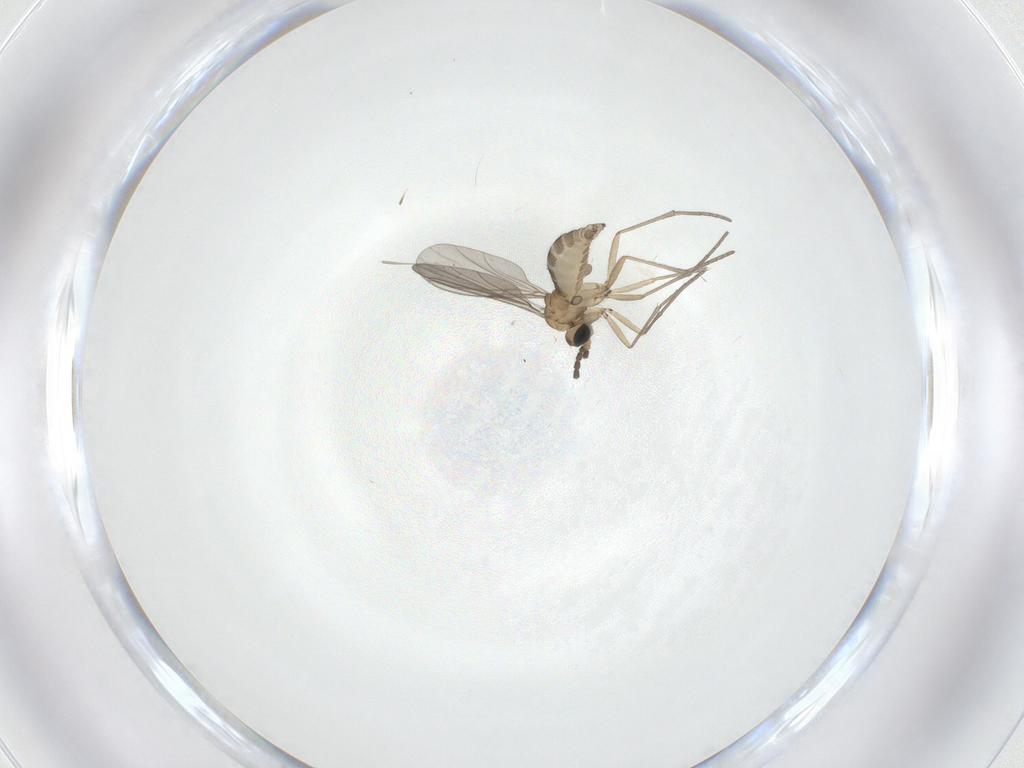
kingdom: Animalia
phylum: Arthropoda
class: Insecta
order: Diptera
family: Sciaridae
